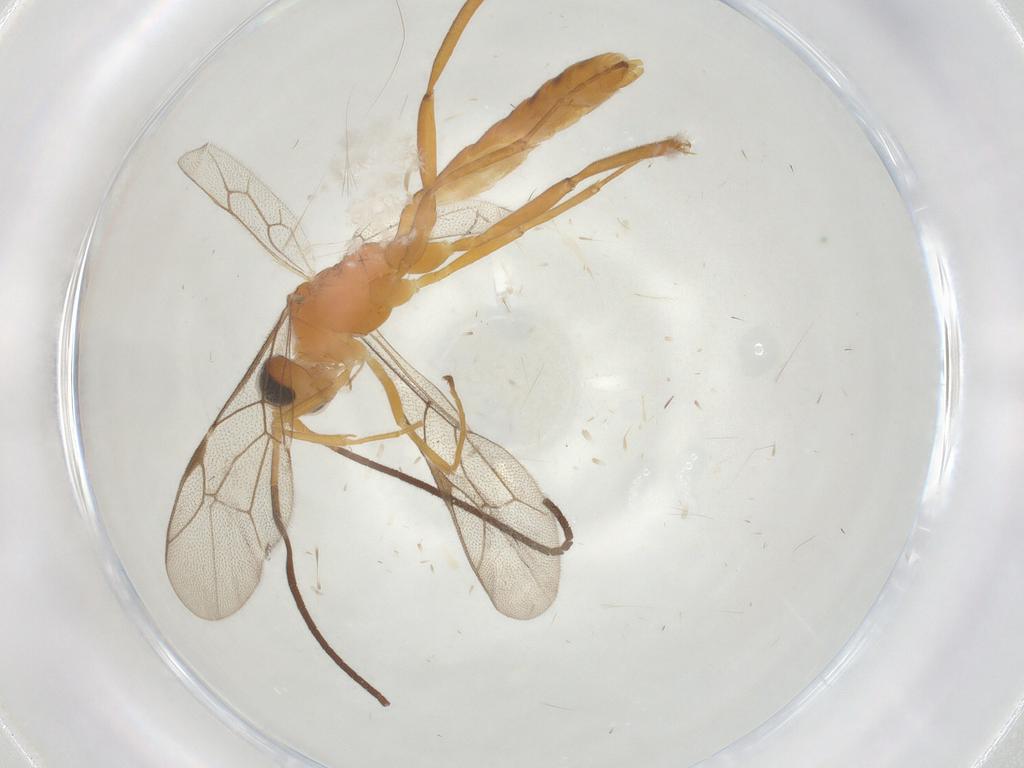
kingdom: Animalia
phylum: Arthropoda
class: Insecta
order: Hymenoptera
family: Ichneumonidae
